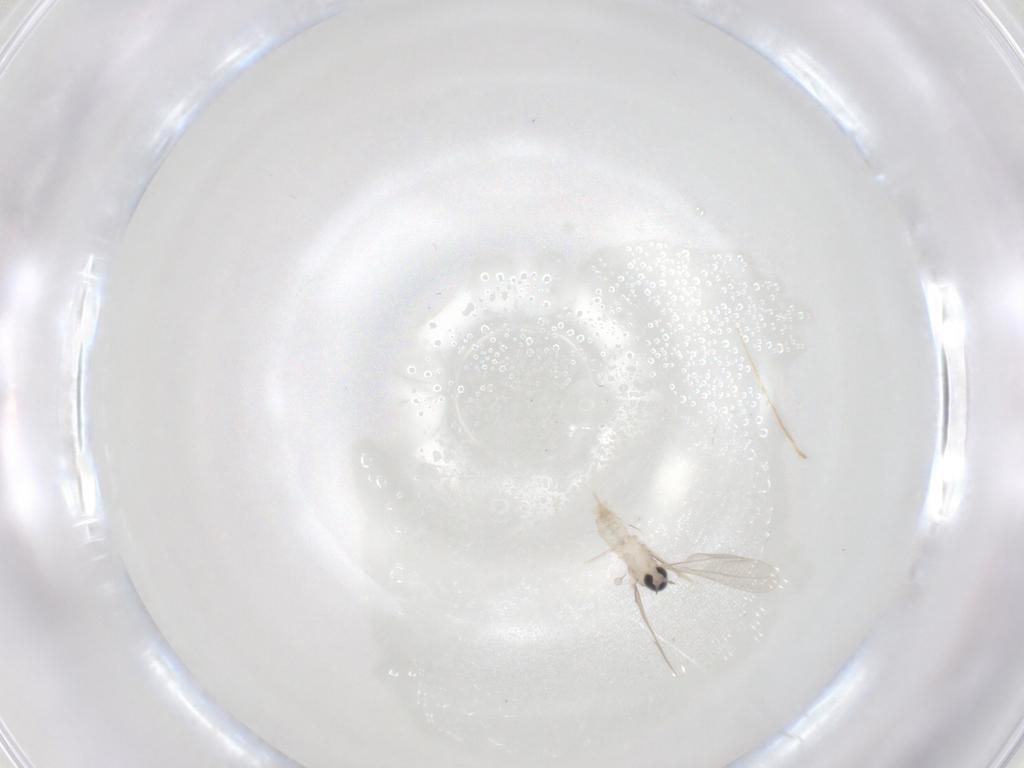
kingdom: Animalia
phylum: Arthropoda
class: Insecta
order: Diptera
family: Cecidomyiidae
